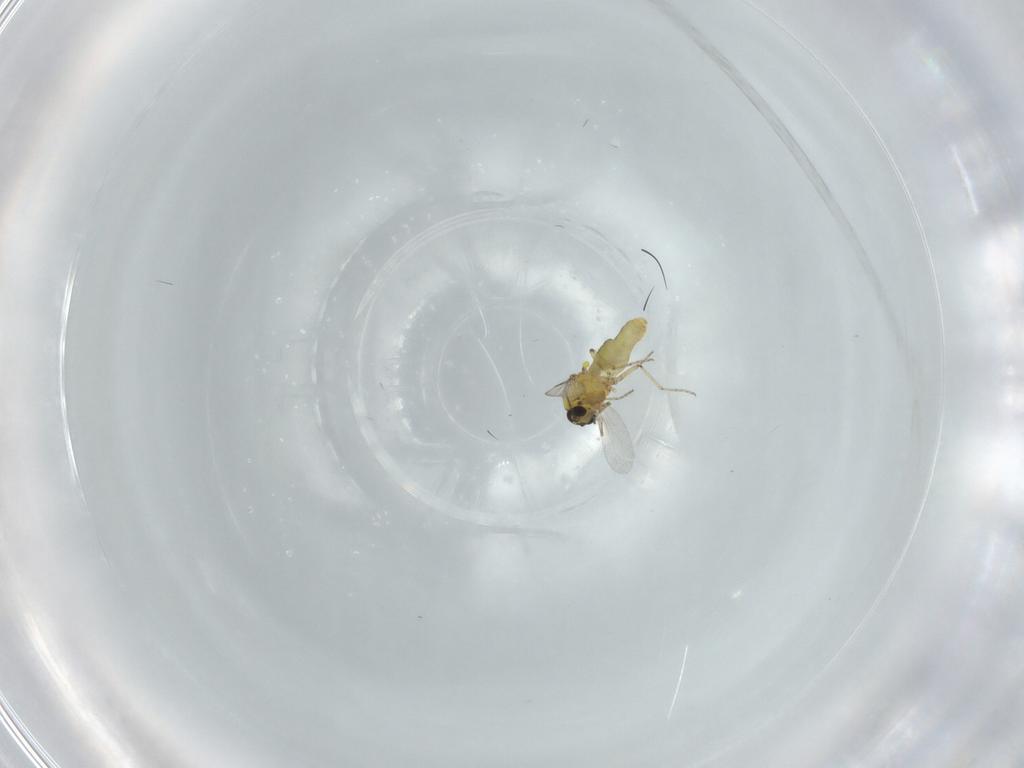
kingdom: Animalia
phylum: Arthropoda
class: Insecta
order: Diptera
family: Ceratopogonidae
